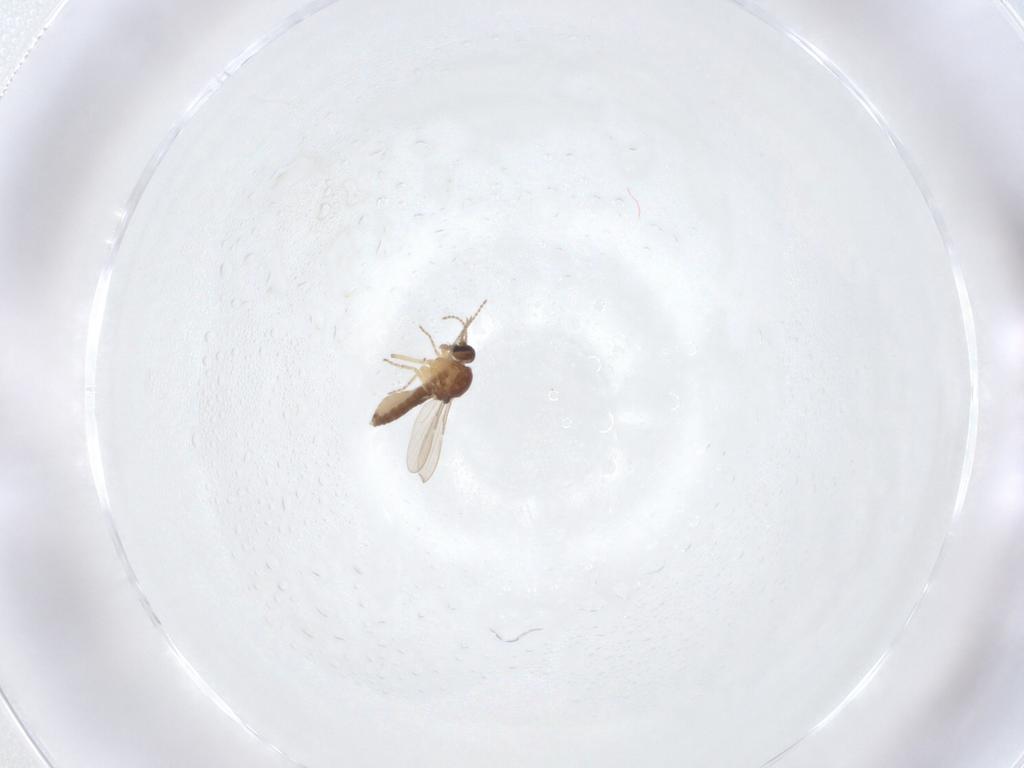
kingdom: Animalia
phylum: Arthropoda
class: Insecta
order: Diptera
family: Ceratopogonidae
